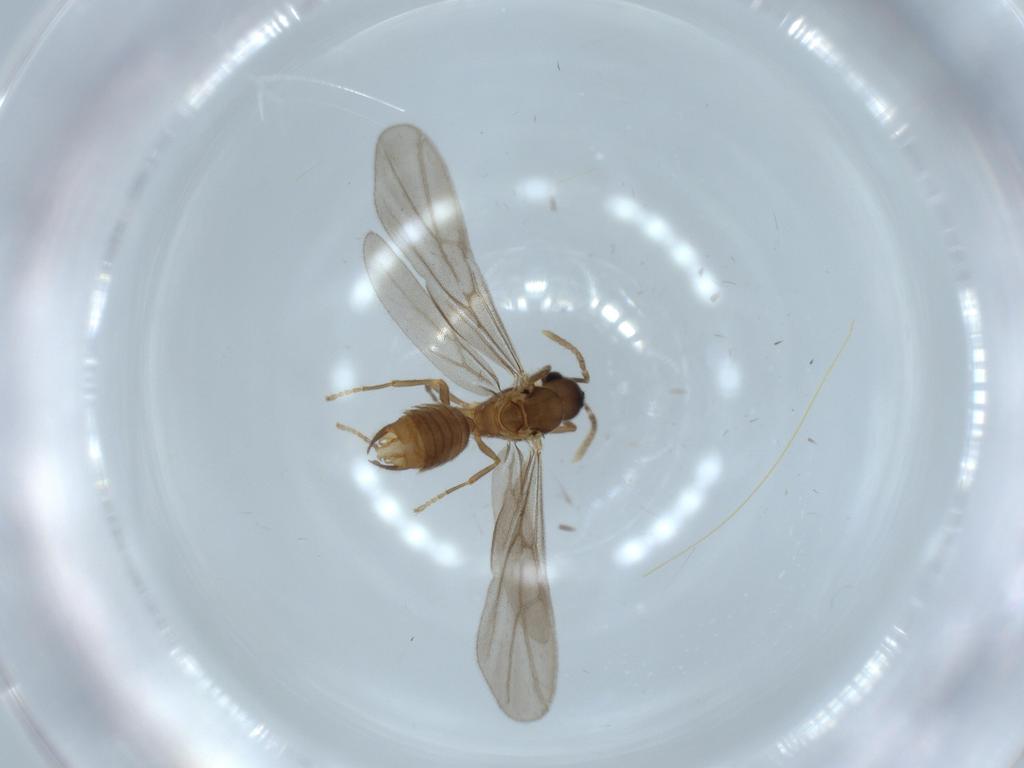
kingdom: Animalia
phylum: Arthropoda
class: Insecta
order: Hymenoptera
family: Formicidae
